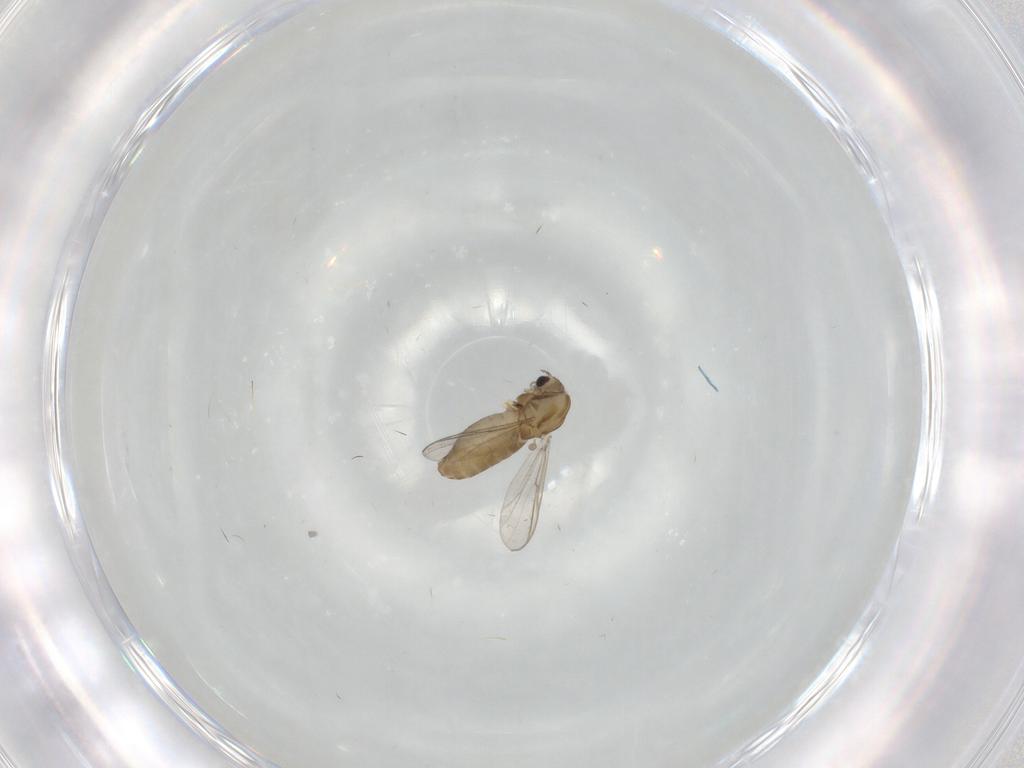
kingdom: Animalia
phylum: Arthropoda
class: Insecta
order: Diptera
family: Chironomidae
